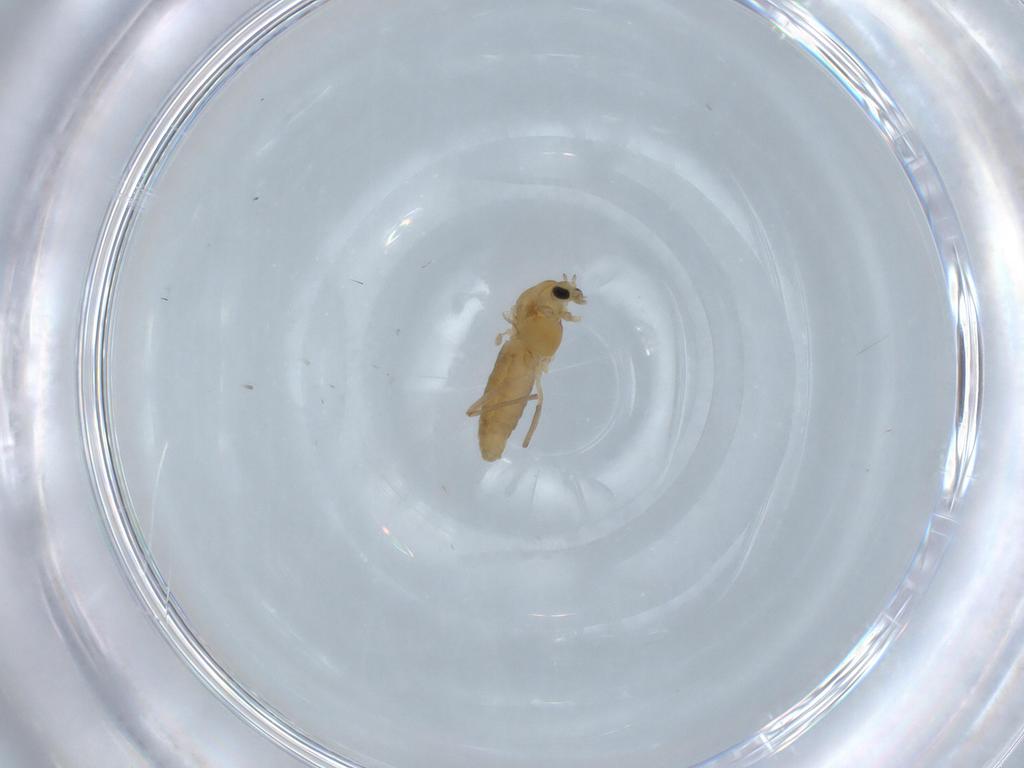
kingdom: Animalia
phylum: Arthropoda
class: Insecta
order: Diptera
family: Chironomidae
